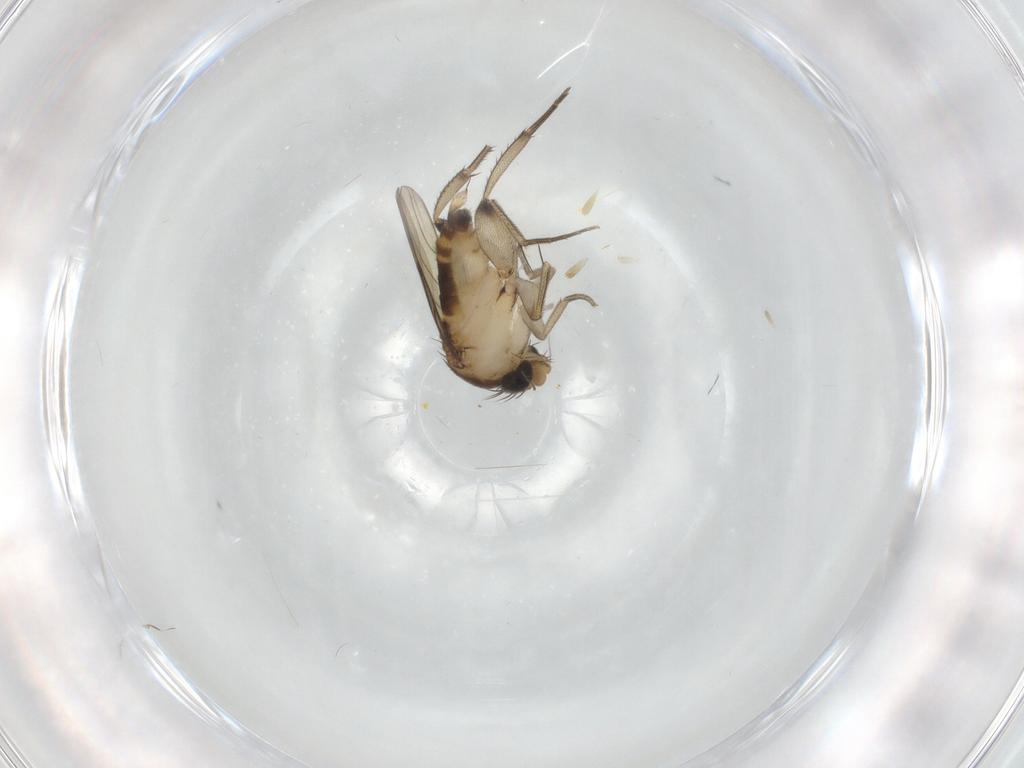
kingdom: Animalia
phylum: Arthropoda
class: Insecta
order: Diptera
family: Phoridae
